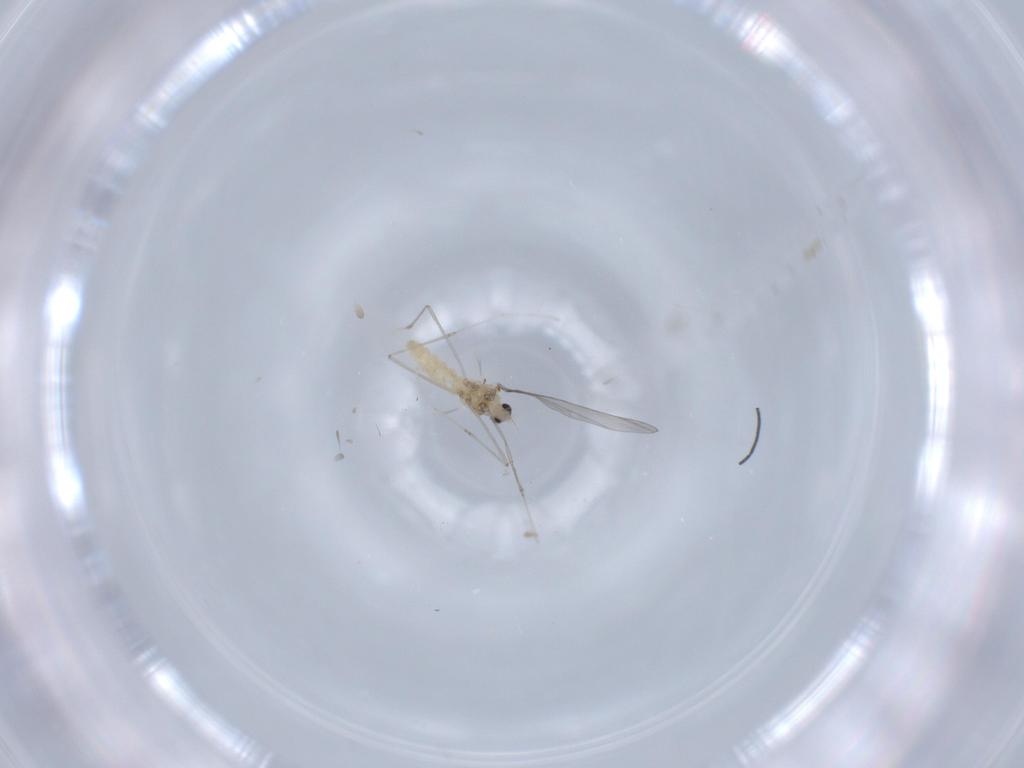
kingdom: Animalia
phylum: Arthropoda
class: Insecta
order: Diptera
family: Cecidomyiidae
